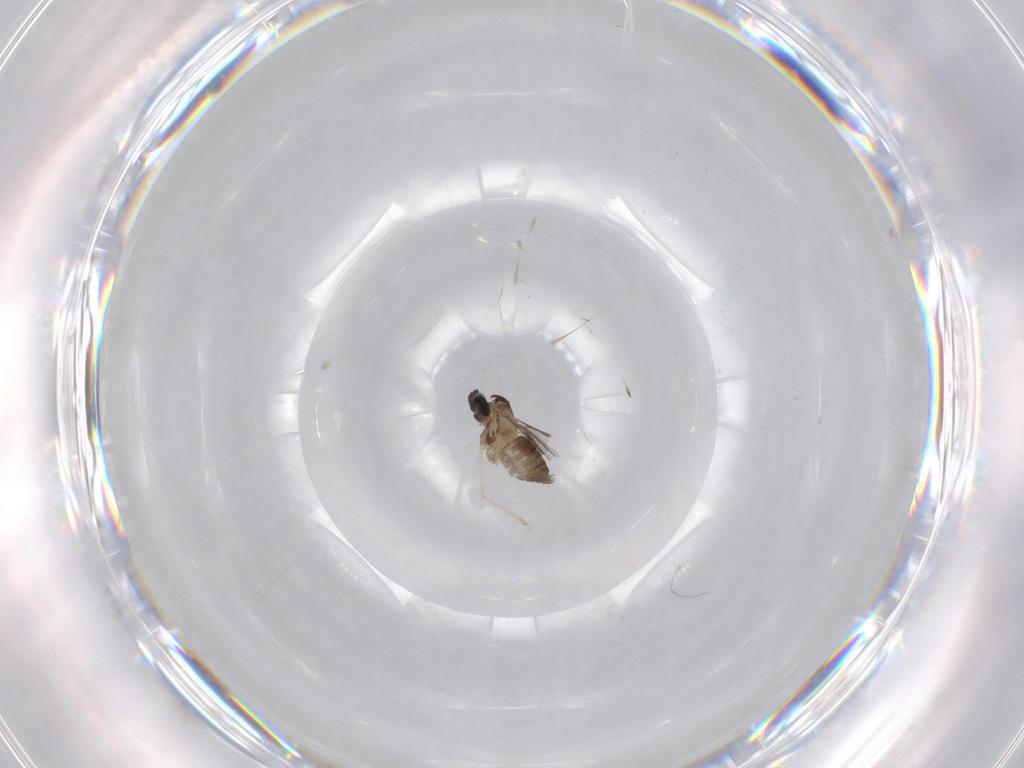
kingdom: Animalia
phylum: Arthropoda
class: Insecta
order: Diptera
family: Cecidomyiidae
